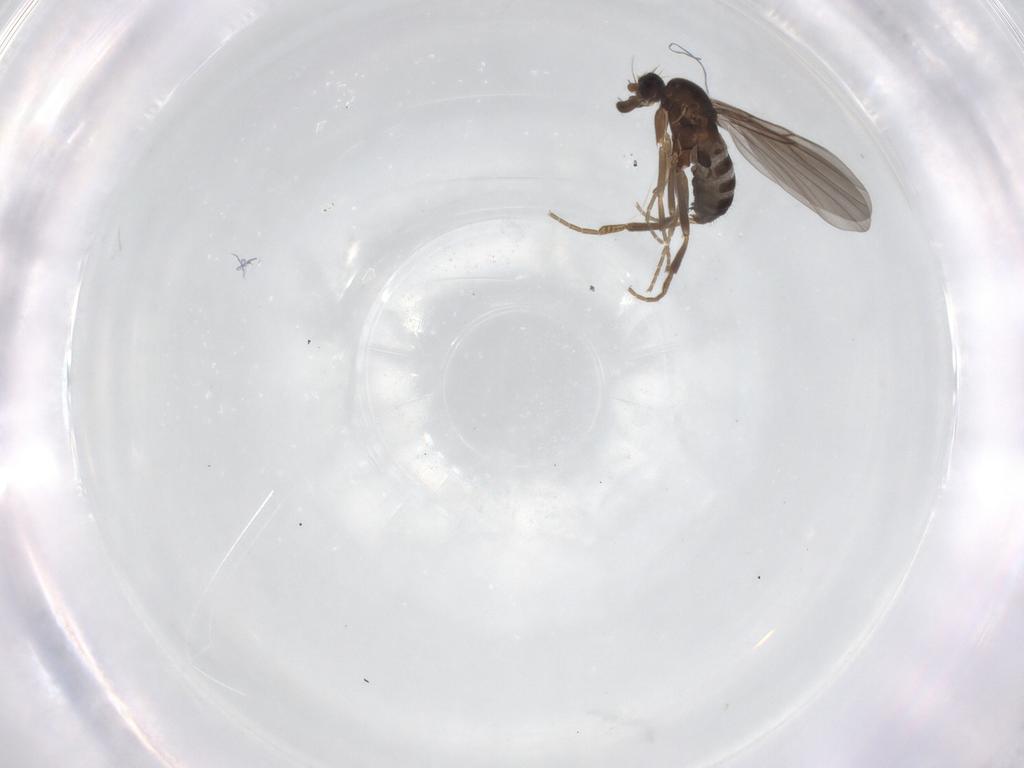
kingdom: Animalia
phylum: Arthropoda
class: Insecta
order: Diptera
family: Phoridae
